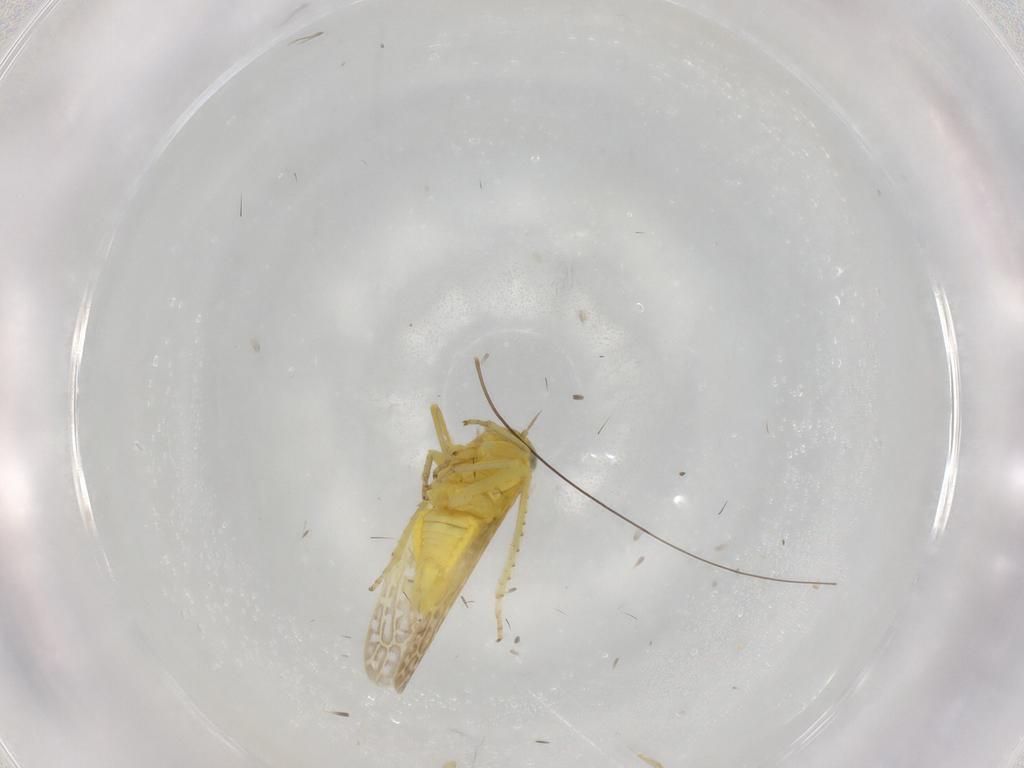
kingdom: Animalia
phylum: Arthropoda
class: Insecta
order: Hemiptera
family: Cicadellidae
